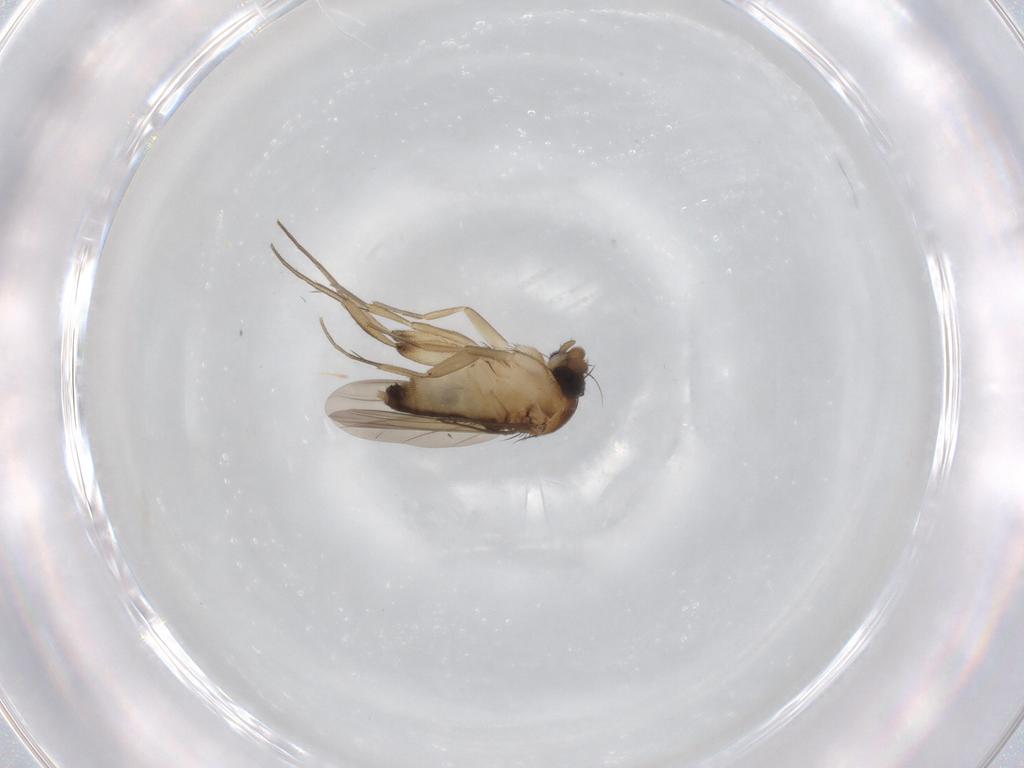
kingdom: Animalia
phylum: Arthropoda
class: Insecta
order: Diptera
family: Phoridae
